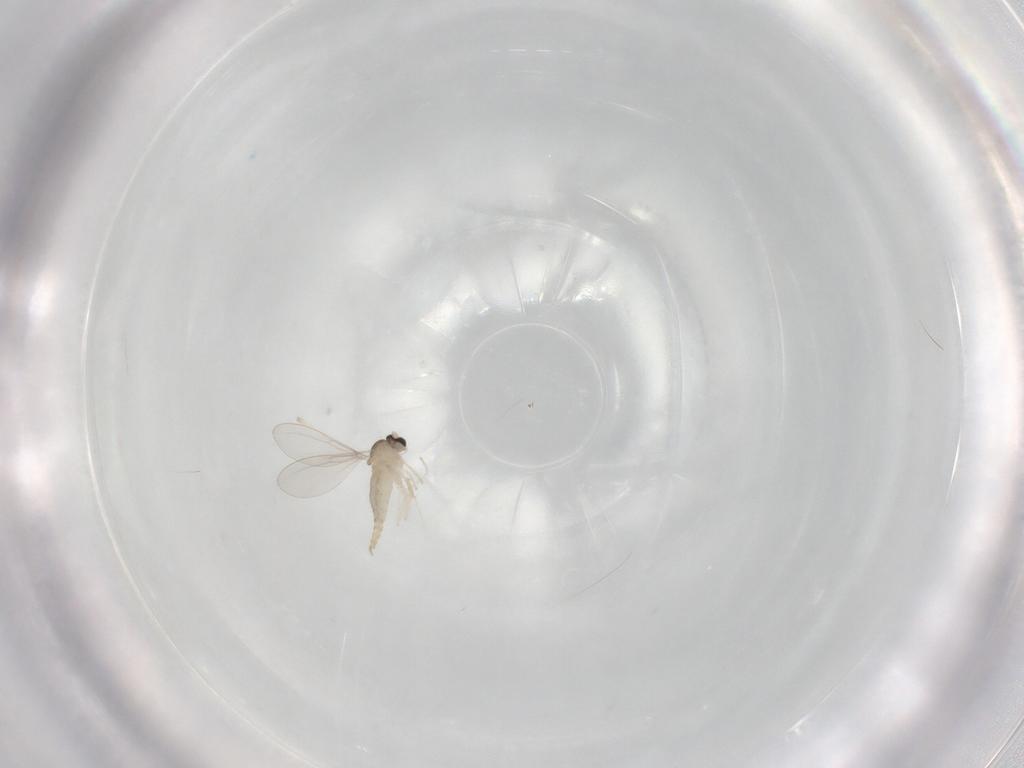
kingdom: Animalia
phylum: Arthropoda
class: Insecta
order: Diptera
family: Cecidomyiidae
